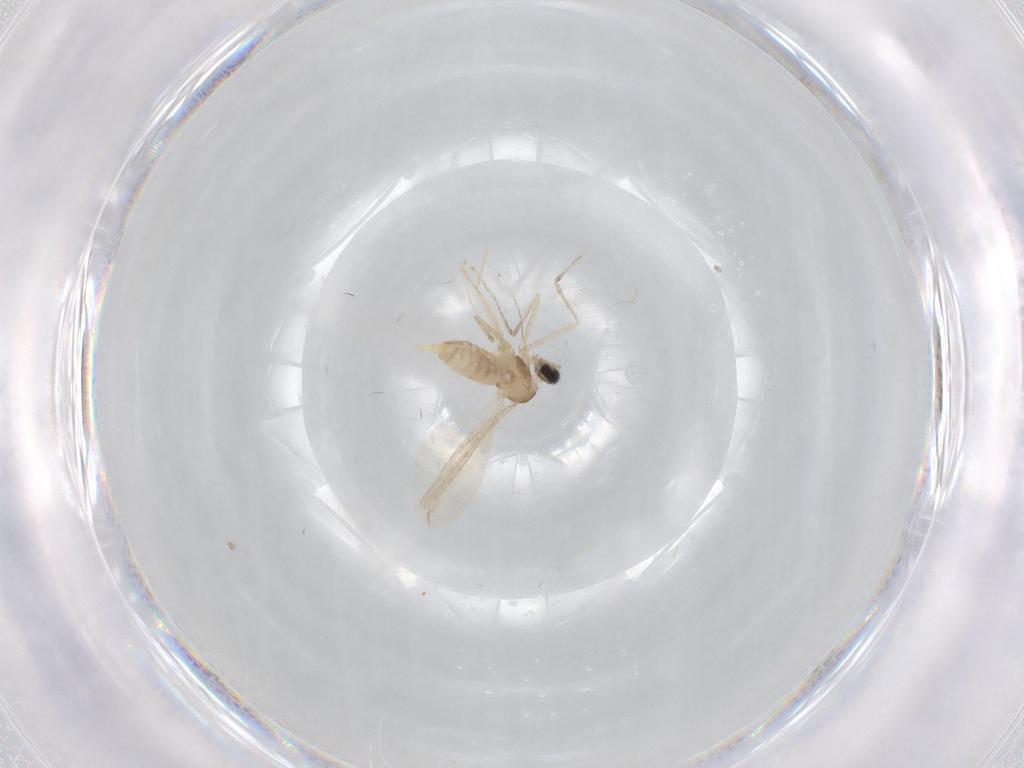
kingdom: Animalia
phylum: Arthropoda
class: Insecta
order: Diptera
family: Cecidomyiidae
